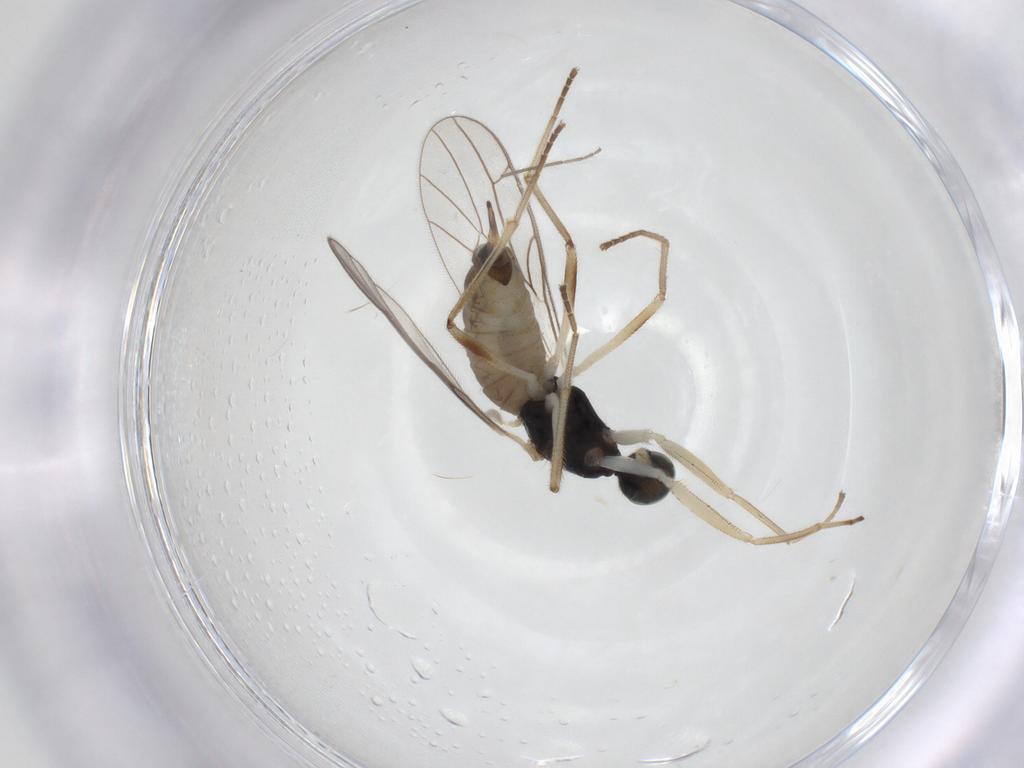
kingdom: Animalia
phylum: Arthropoda
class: Insecta
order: Diptera
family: Empididae
